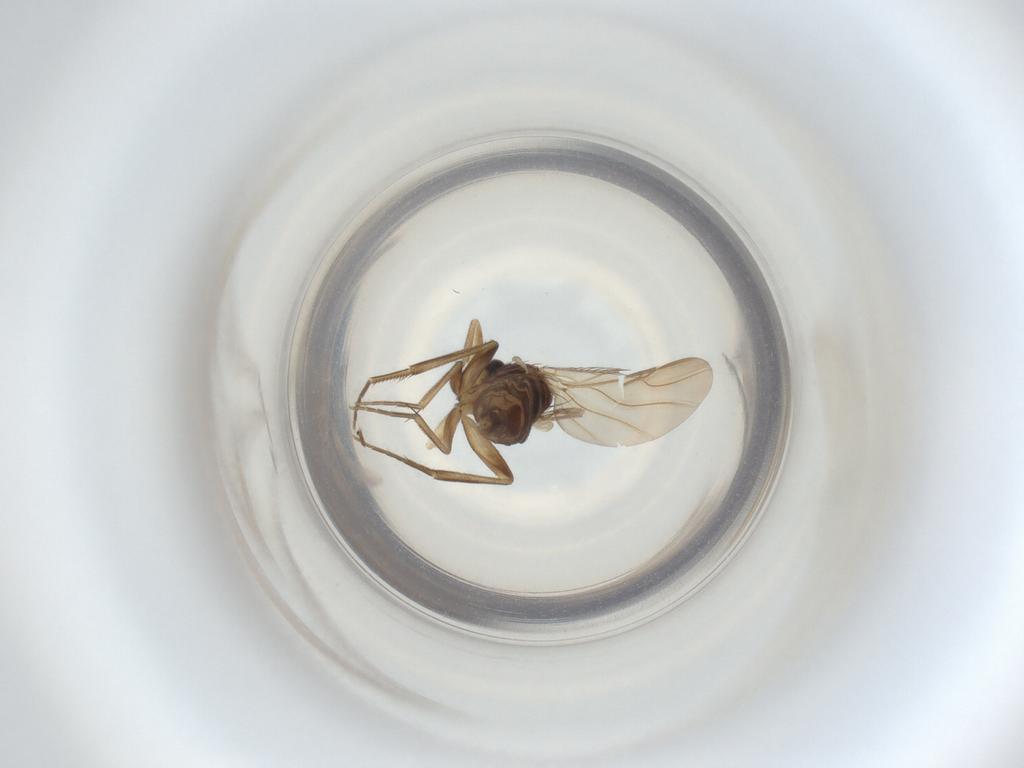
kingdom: Animalia
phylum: Arthropoda
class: Insecta
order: Diptera
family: Phoridae
